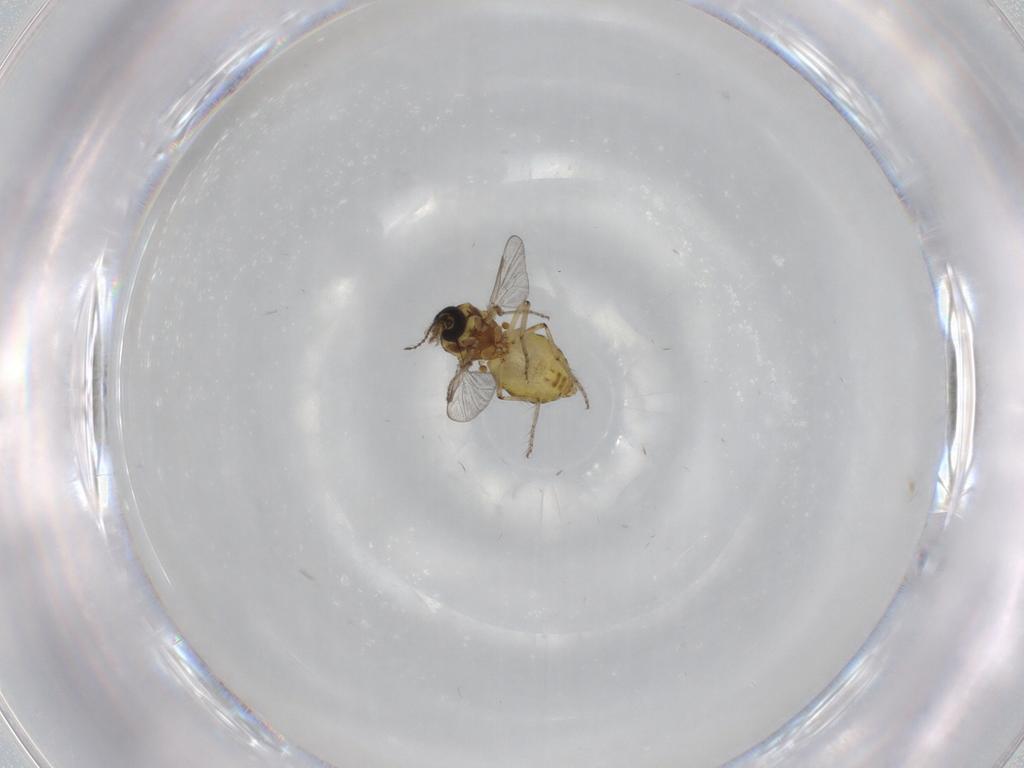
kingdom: Animalia
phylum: Arthropoda
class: Insecta
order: Diptera
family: Ceratopogonidae
